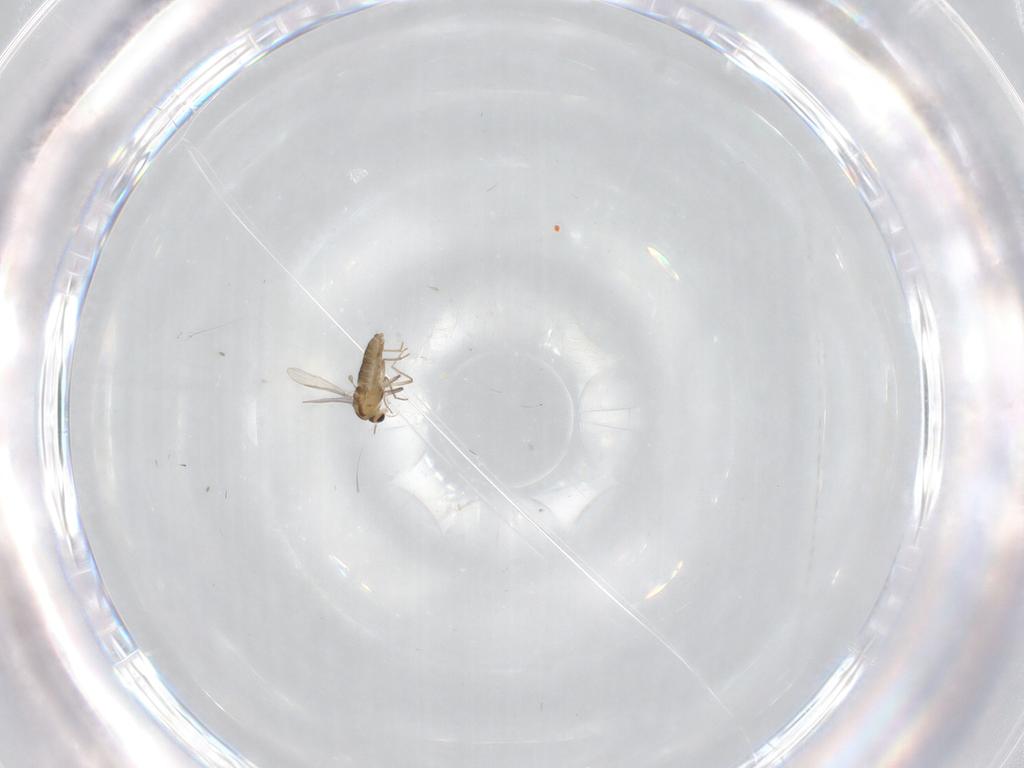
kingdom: Animalia
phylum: Arthropoda
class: Insecta
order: Diptera
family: Chironomidae
